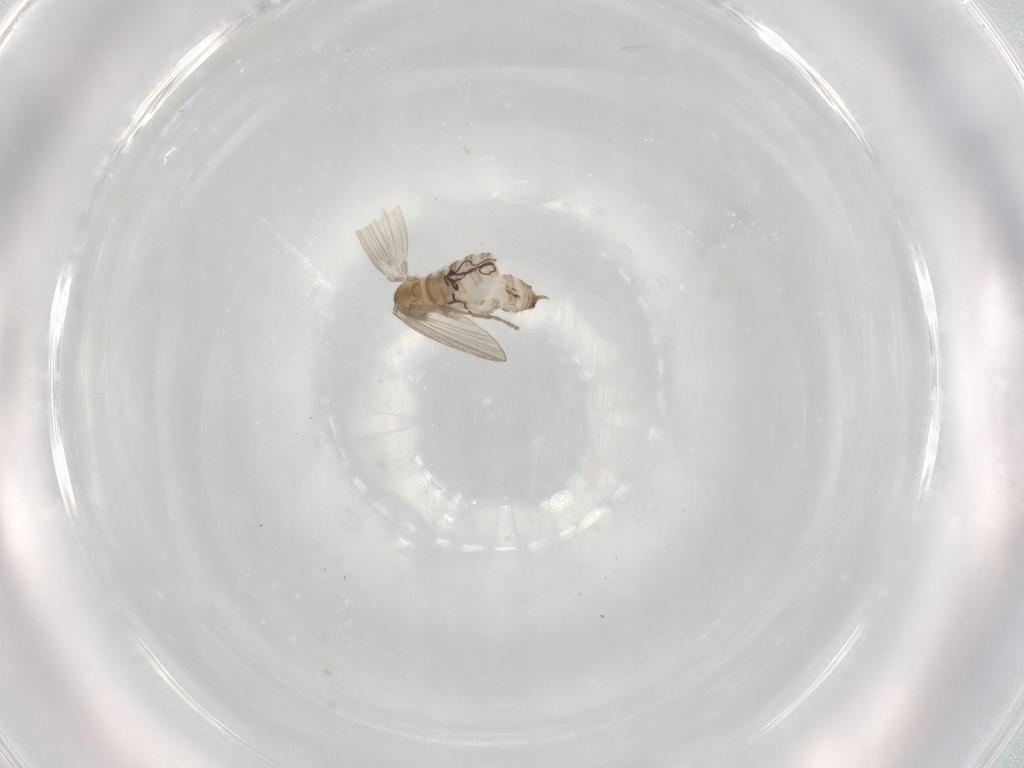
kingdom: Animalia
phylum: Arthropoda
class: Insecta
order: Diptera
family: Psychodidae
